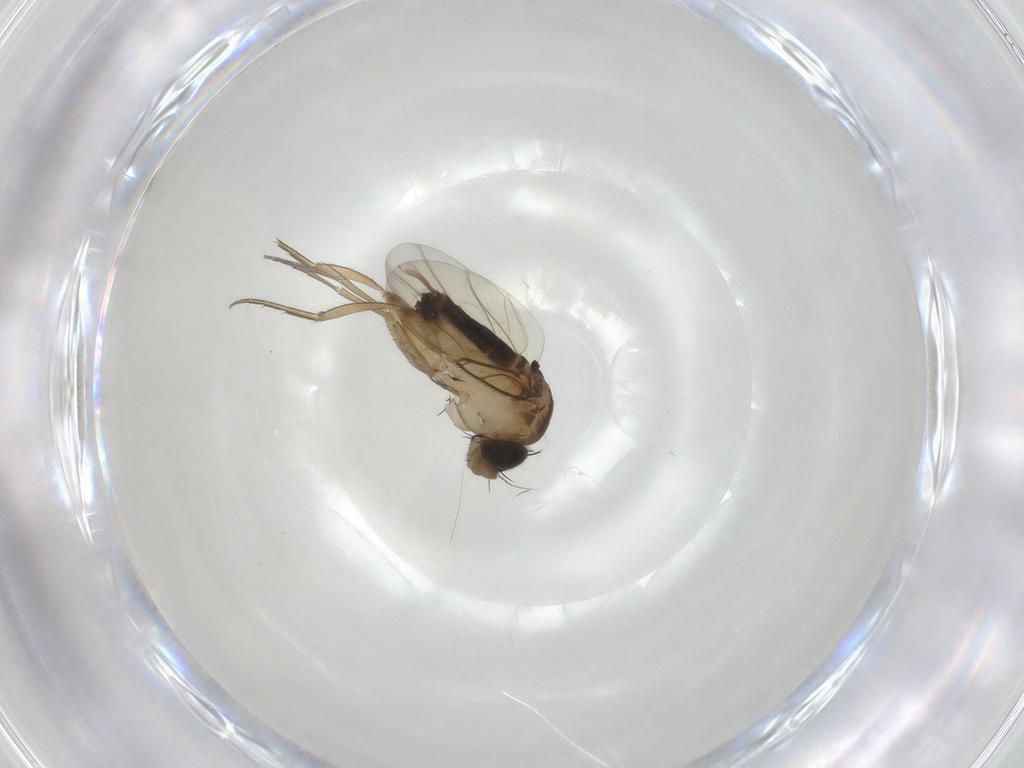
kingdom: Animalia
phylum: Arthropoda
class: Insecta
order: Diptera
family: Phoridae
